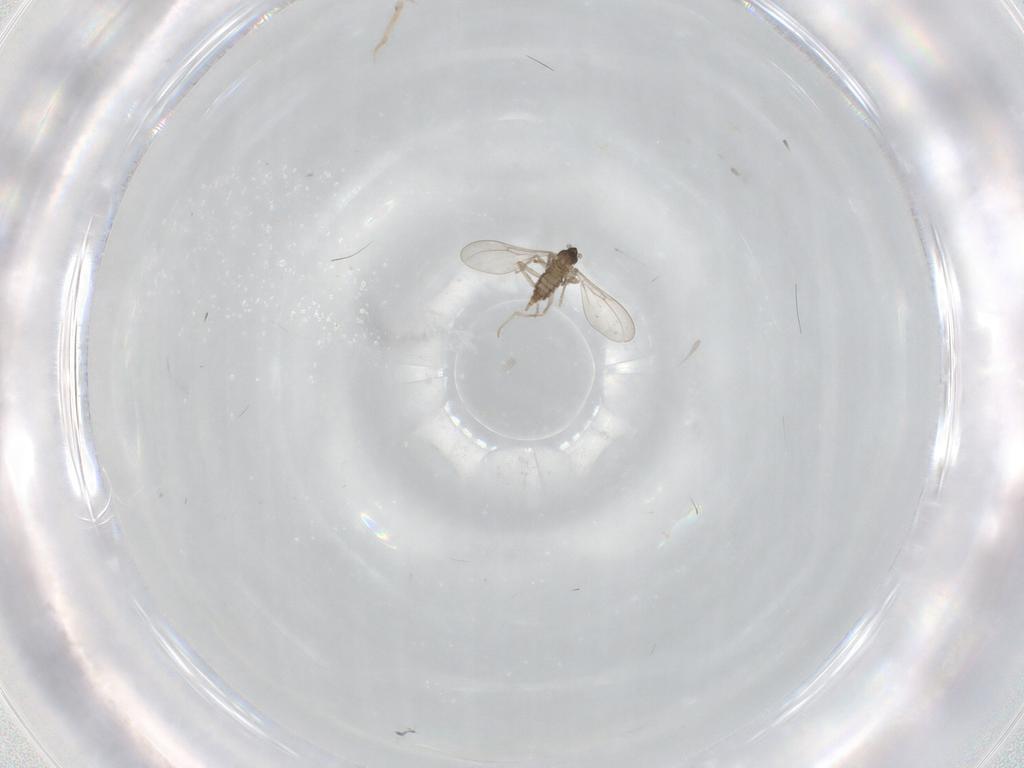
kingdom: Animalia
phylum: Arthropoda
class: Insecta
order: Diptera
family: Cecidomyiidae
